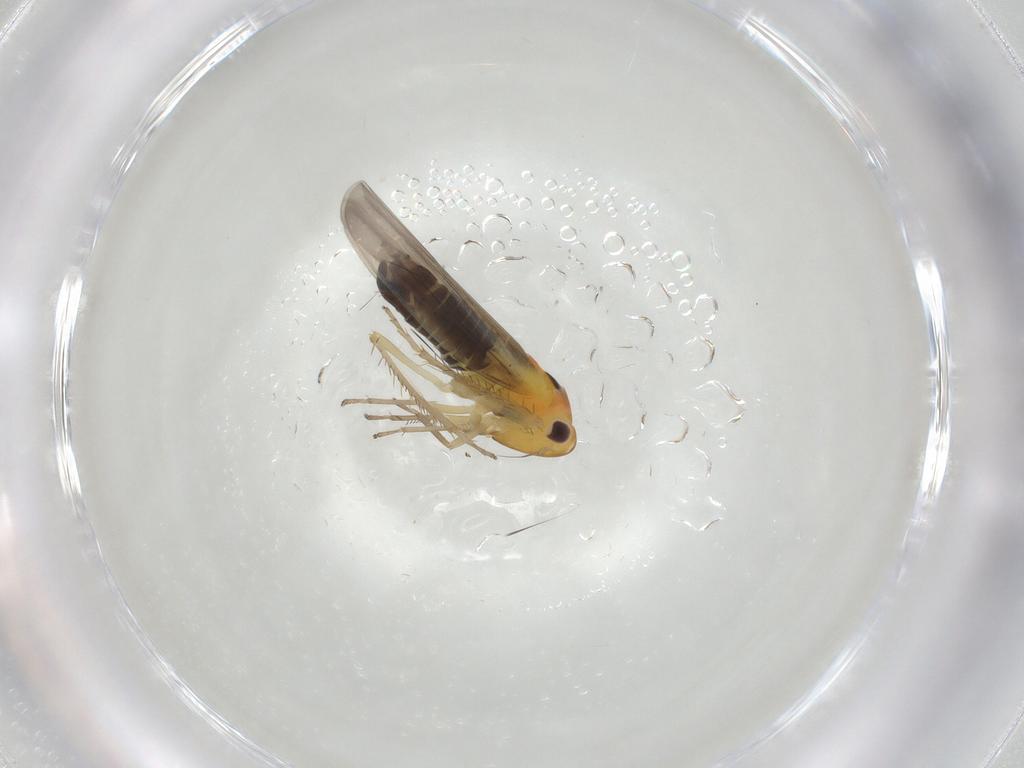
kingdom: Animalia
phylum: Arthropoda
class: Insecta
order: Hemiptera
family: Cicadellidae
